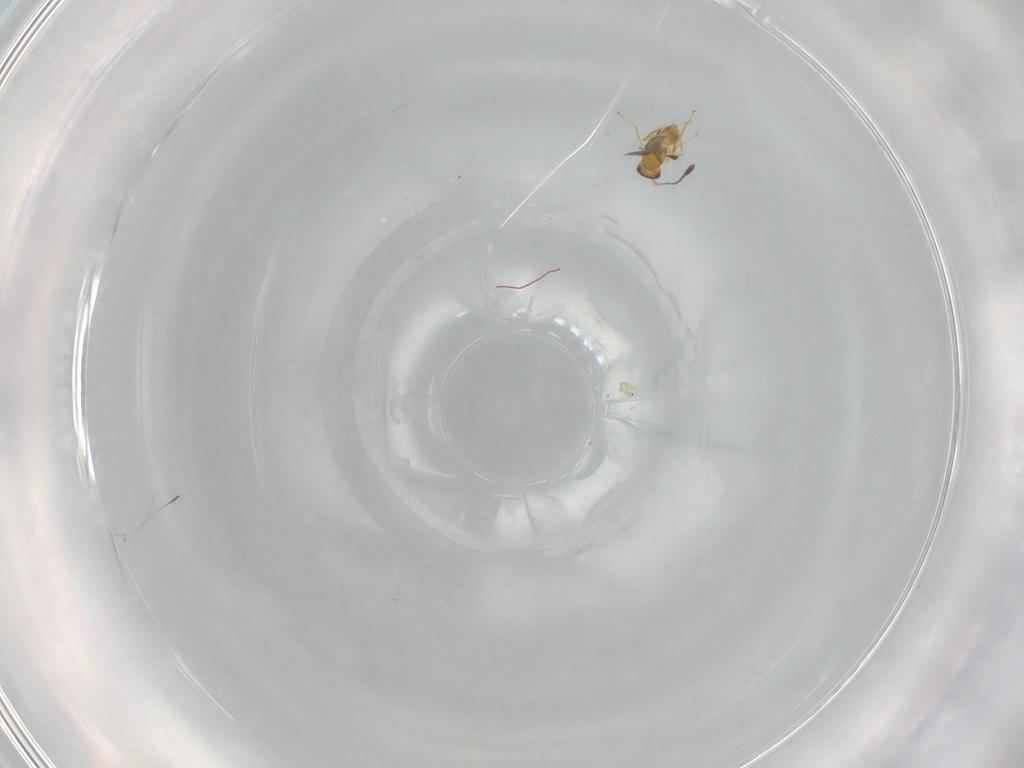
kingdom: Animalia
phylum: Arthropoda
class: Insecta
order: Hymenoptera
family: Mymaridae
